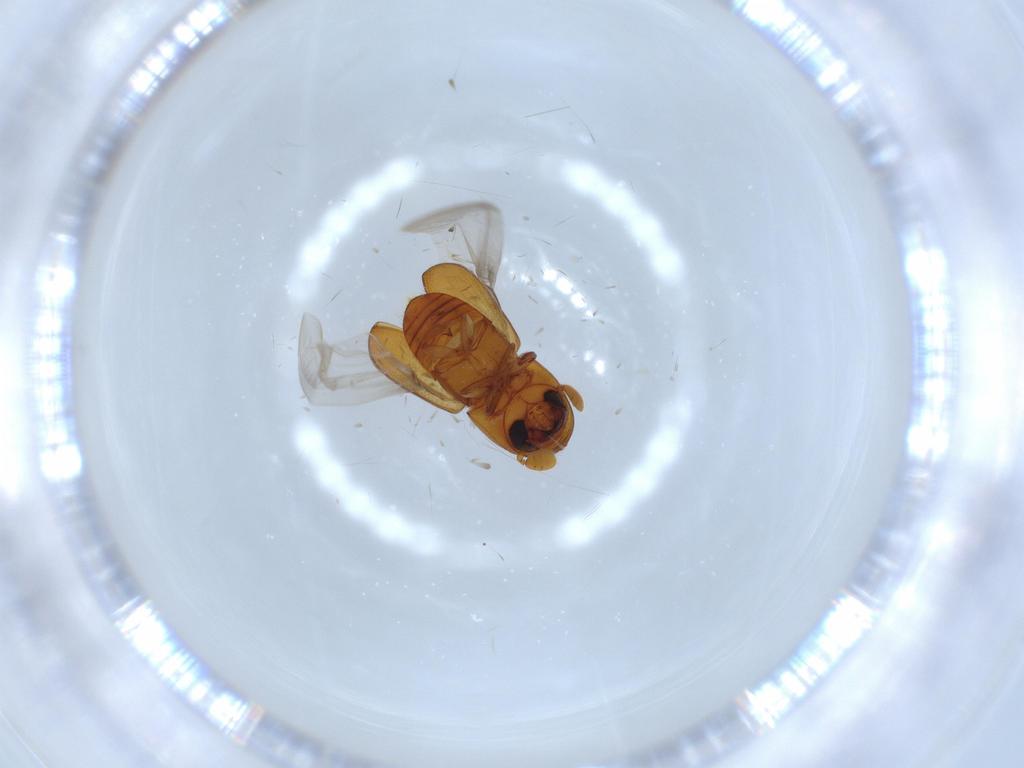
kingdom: Animalia
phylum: Arthropoda
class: Insecta
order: Coleoptera
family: Curculionidae
